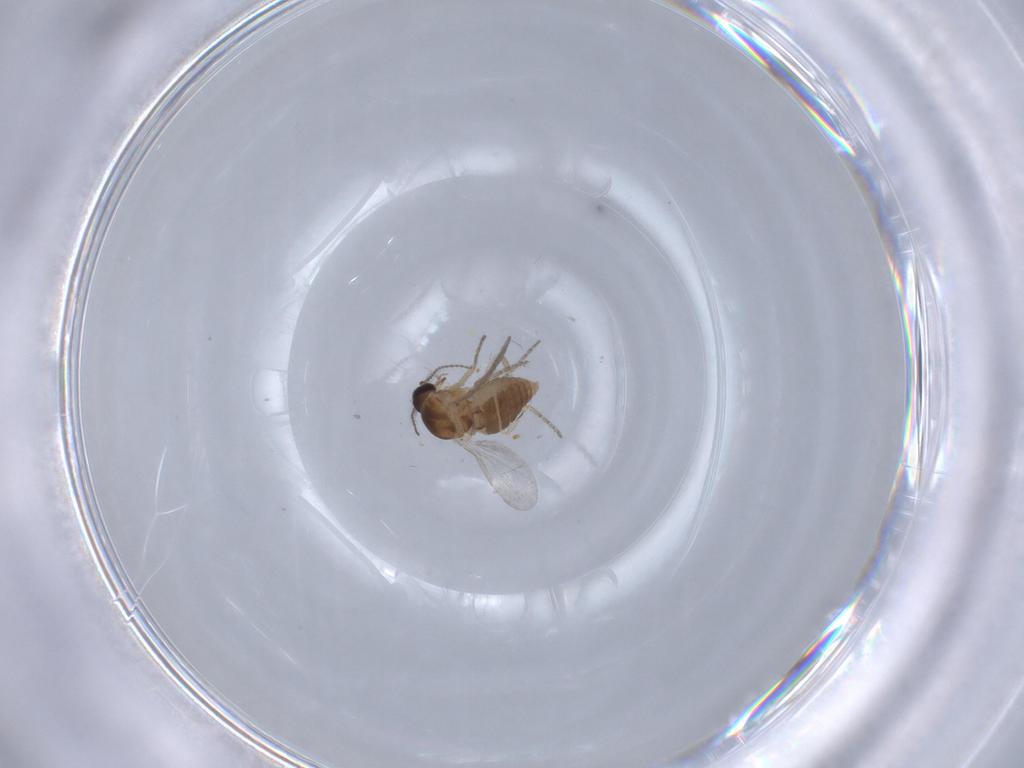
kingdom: Animalia
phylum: Arthropoda
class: Insecta
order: Diptera
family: Ceratopogonidae
